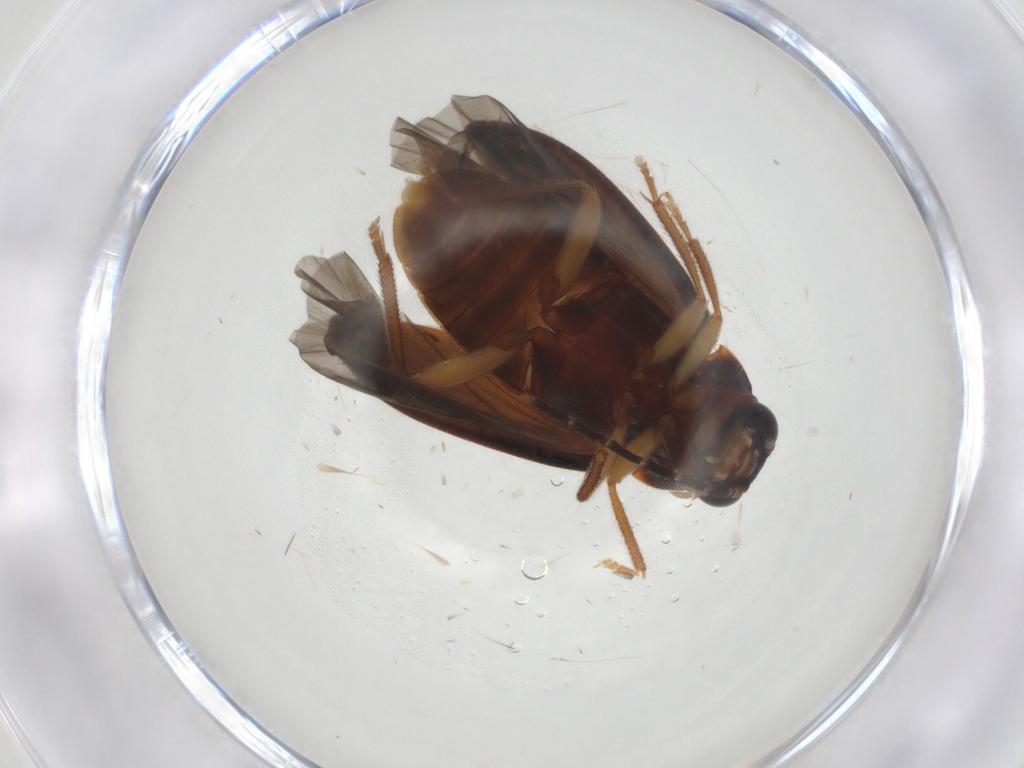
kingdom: Animalia
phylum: Arthropoda
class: Insecta
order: Coleoptera
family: Ptilodactylidae
